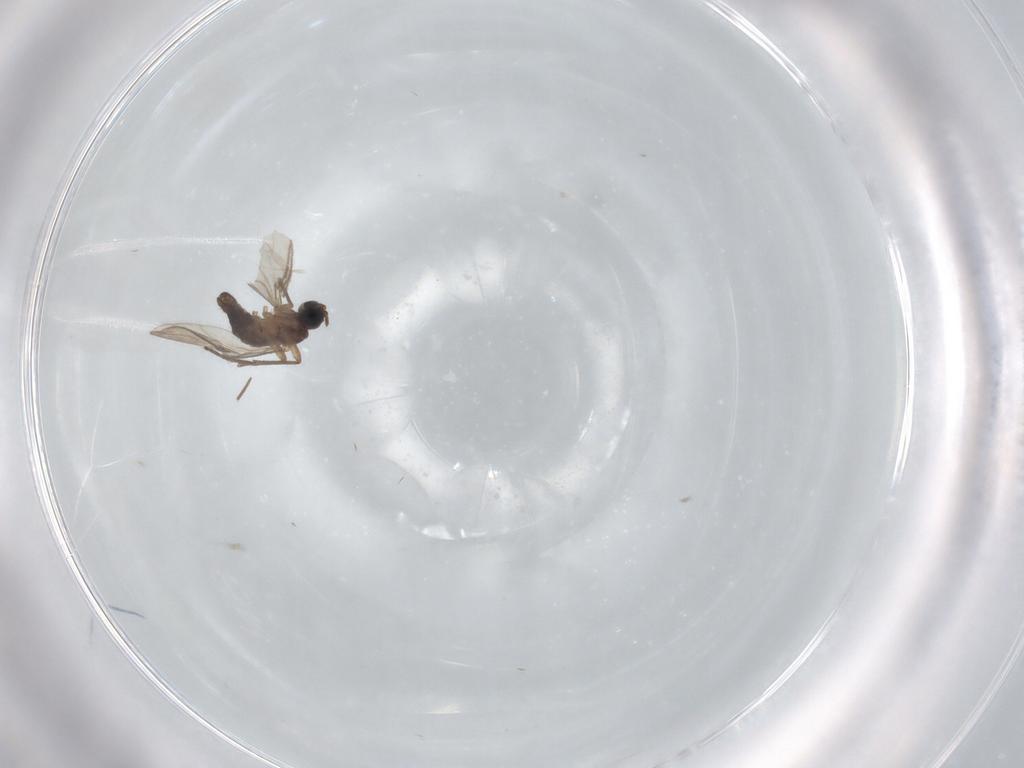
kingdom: Animalia
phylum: Arthropoda
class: Insecta
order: Diptera
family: Sciaridae
